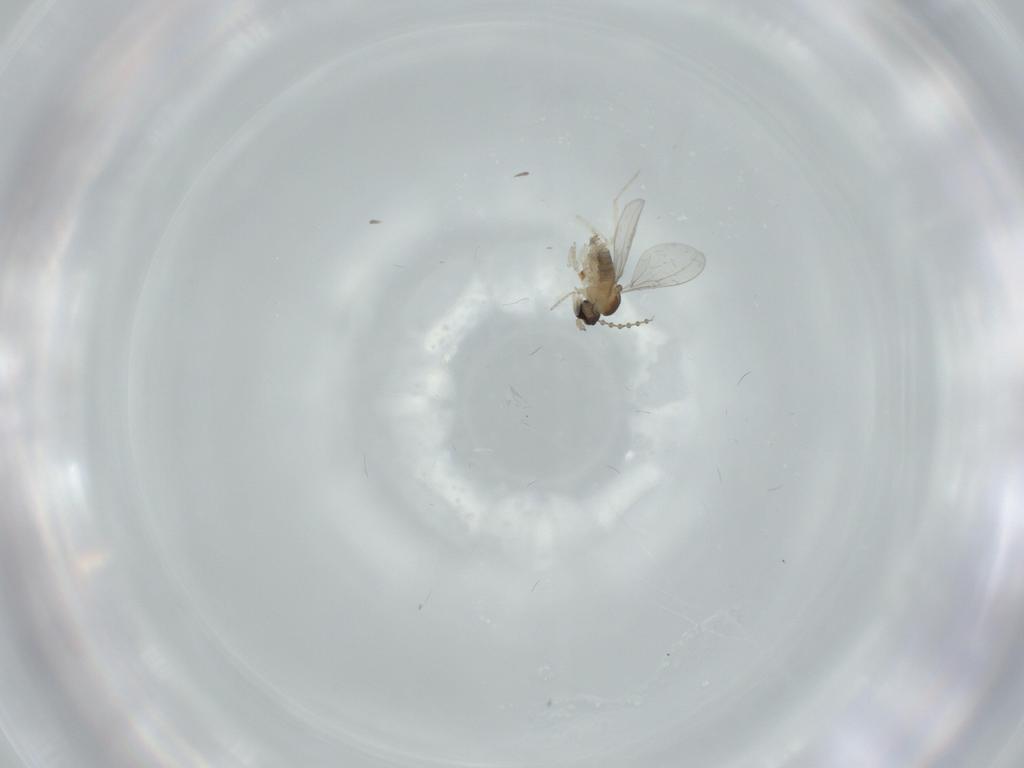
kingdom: Animalia
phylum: Arthropoda
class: Insecta
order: Diptera
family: Cecidomyiidae
